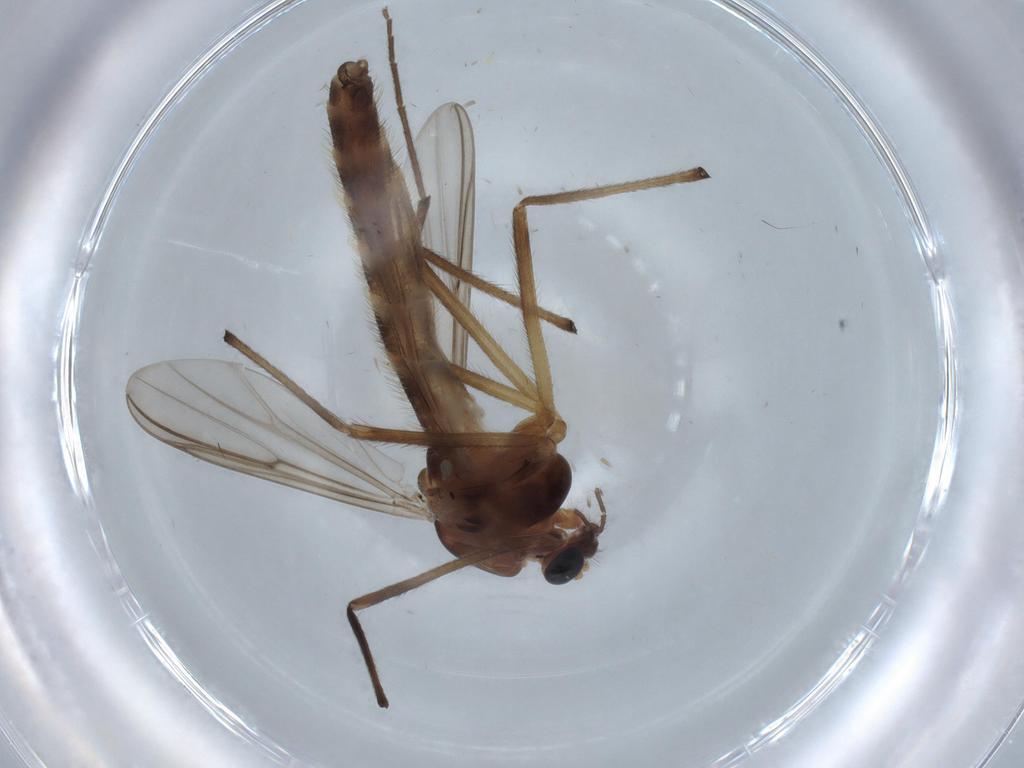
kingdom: Animalia
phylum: Arthropoda
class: Insecta
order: Diptera
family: Chironomidae
